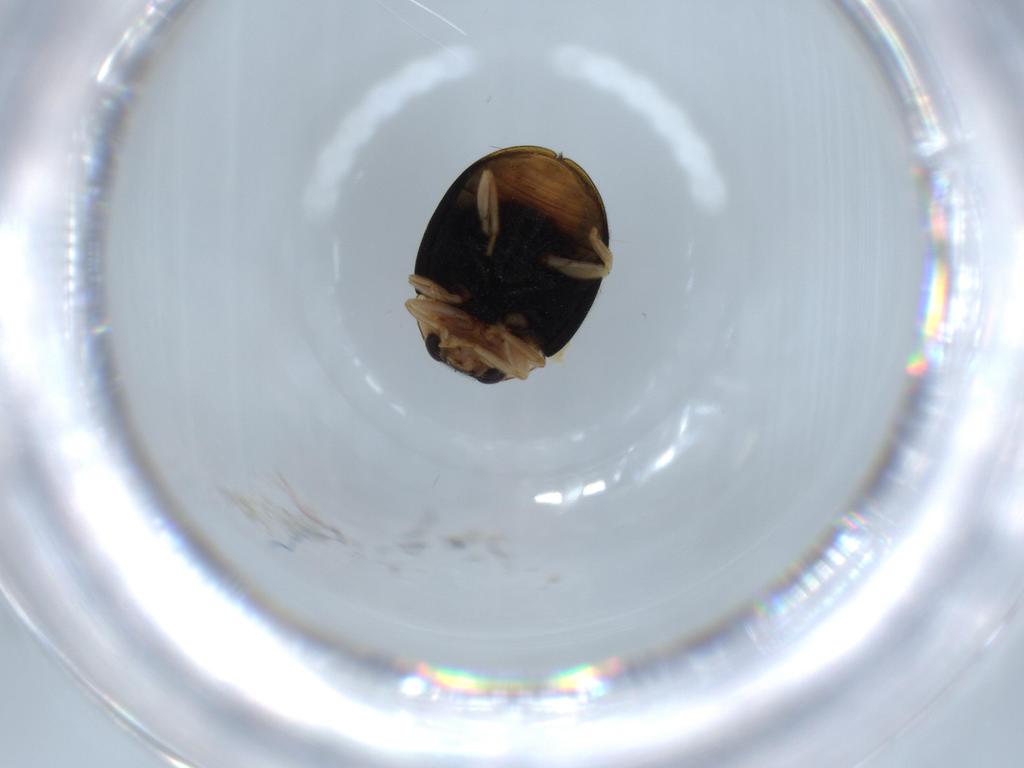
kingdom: Animalia
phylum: Arthropoda
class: Insecta
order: Coleoptera
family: Coccinellidae
